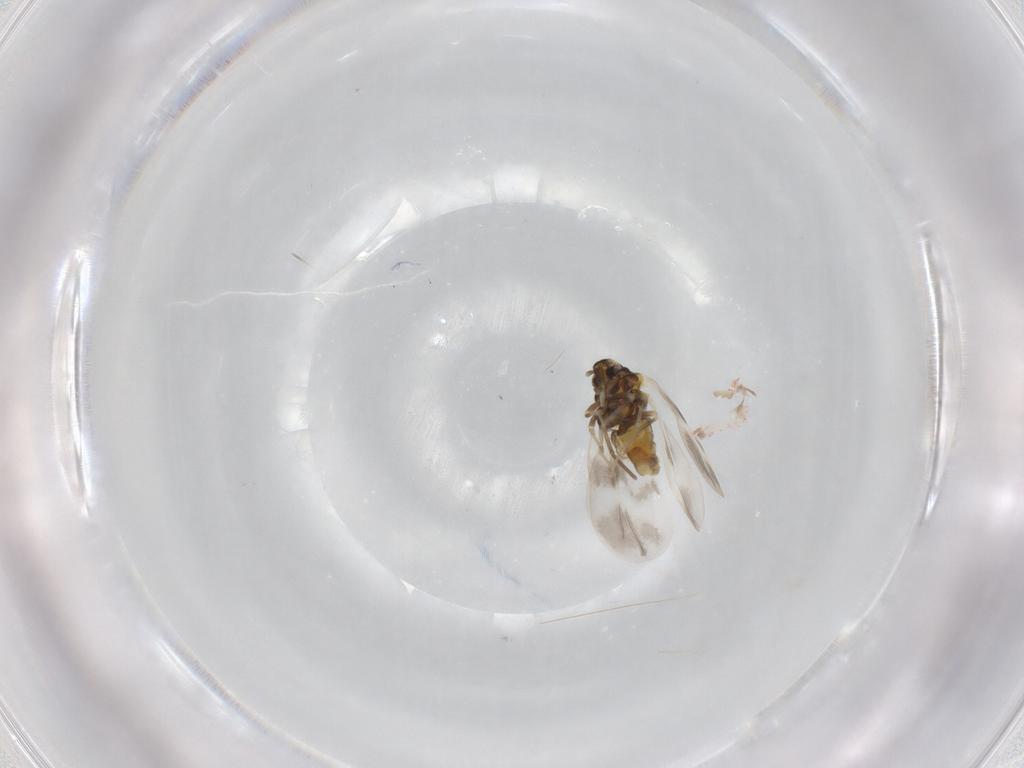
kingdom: Animalia
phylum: Arthropoda
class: Insecta
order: Hemiptera
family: Aleyrodidae
